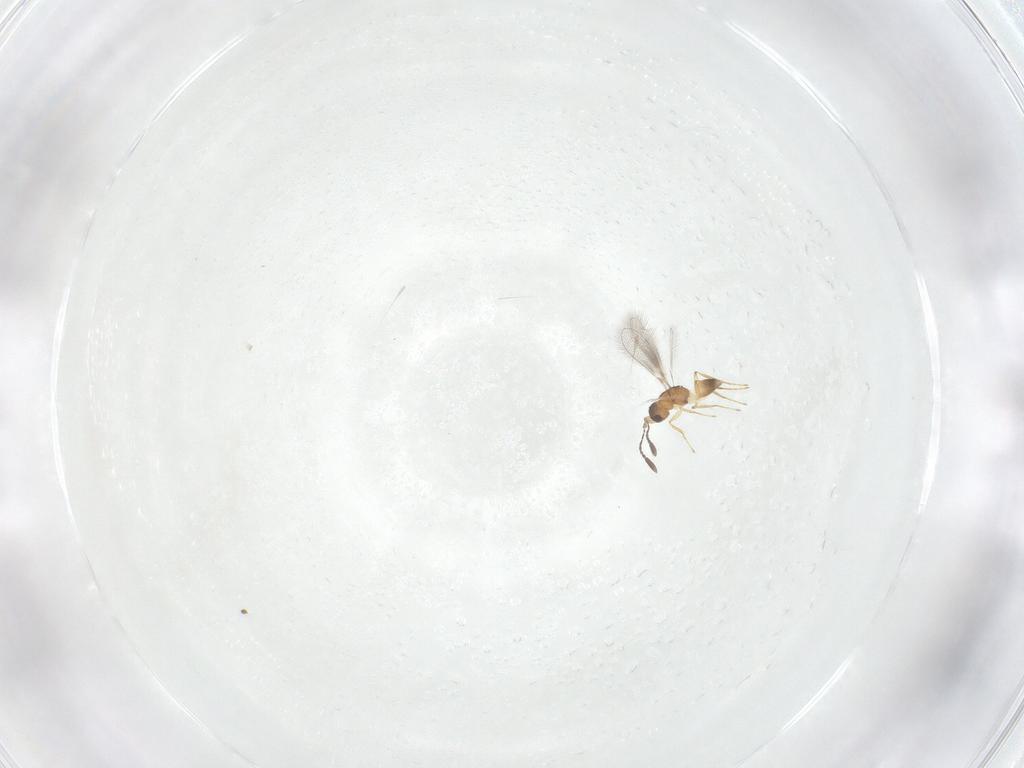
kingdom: Animalia
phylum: Arthropoda
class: Insecta
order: Hymenoptera
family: Mymaridae
